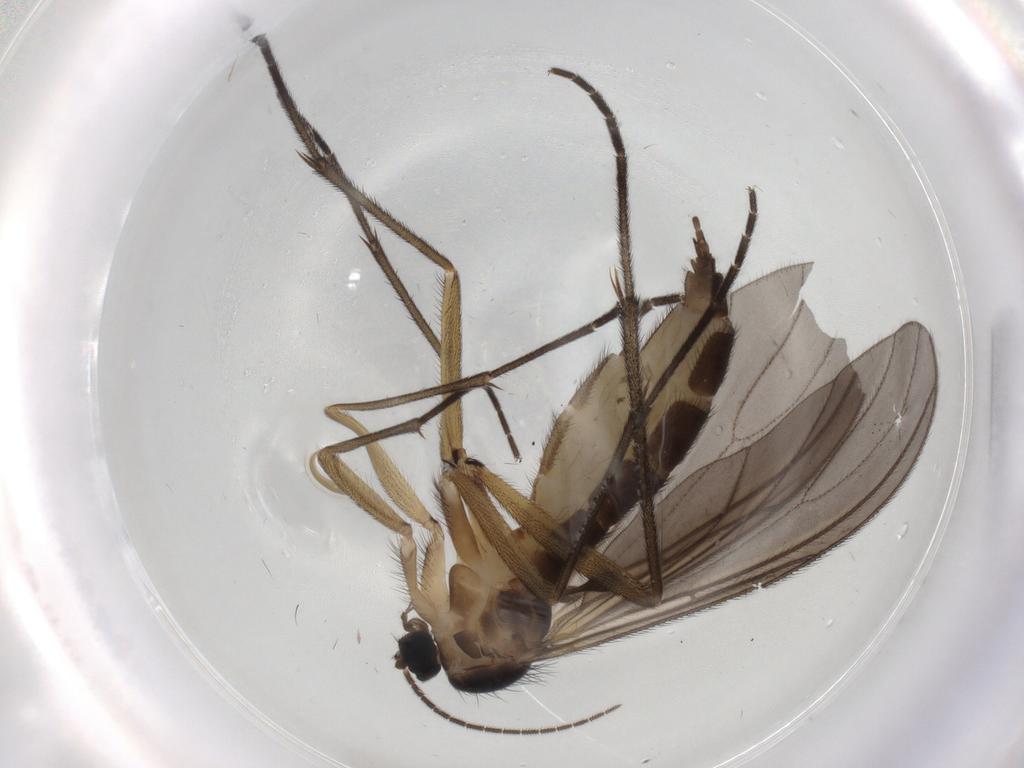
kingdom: Animalia
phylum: Arthropoda
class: Insecta
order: Diptera
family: Sciaridae
